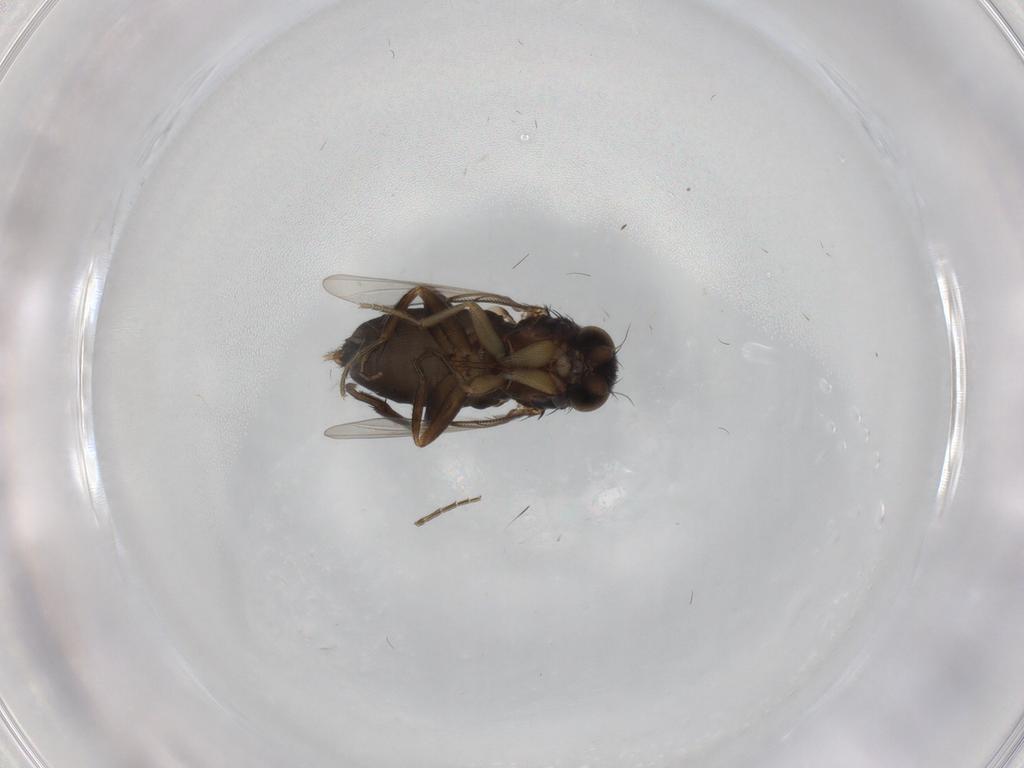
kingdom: Animalia
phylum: Arthropoda
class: Insecta
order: Diptera
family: Phoridae
